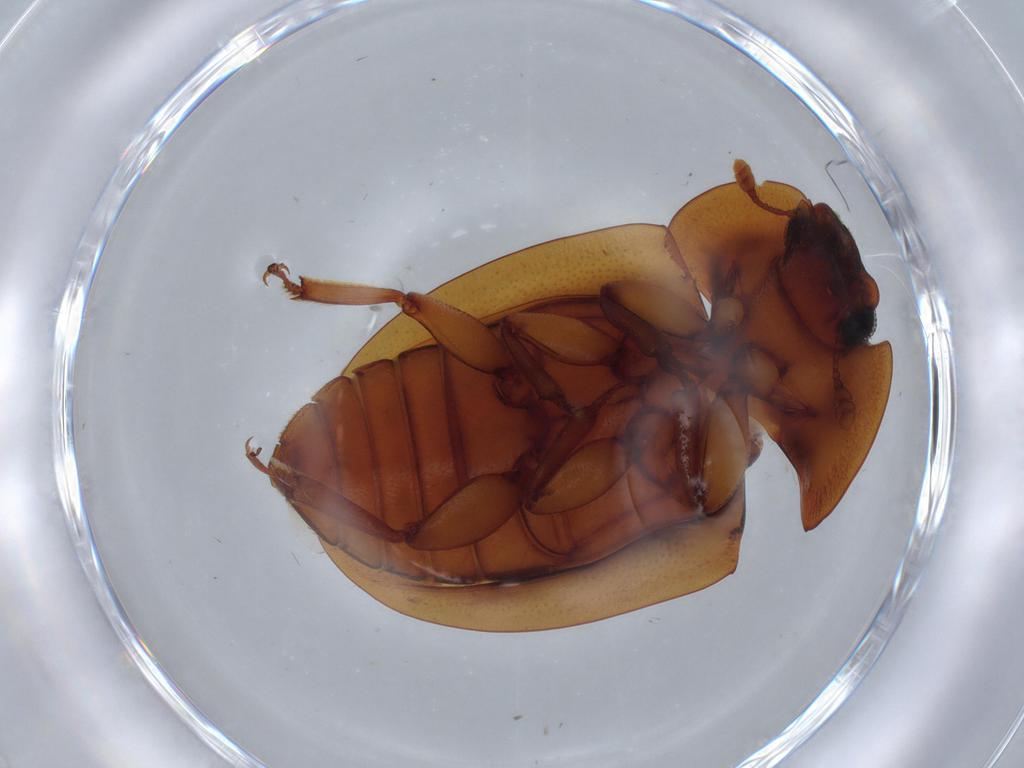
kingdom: Animalia
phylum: Arthropoda
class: Insecta
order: Coleoptera
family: Nitidulidae
